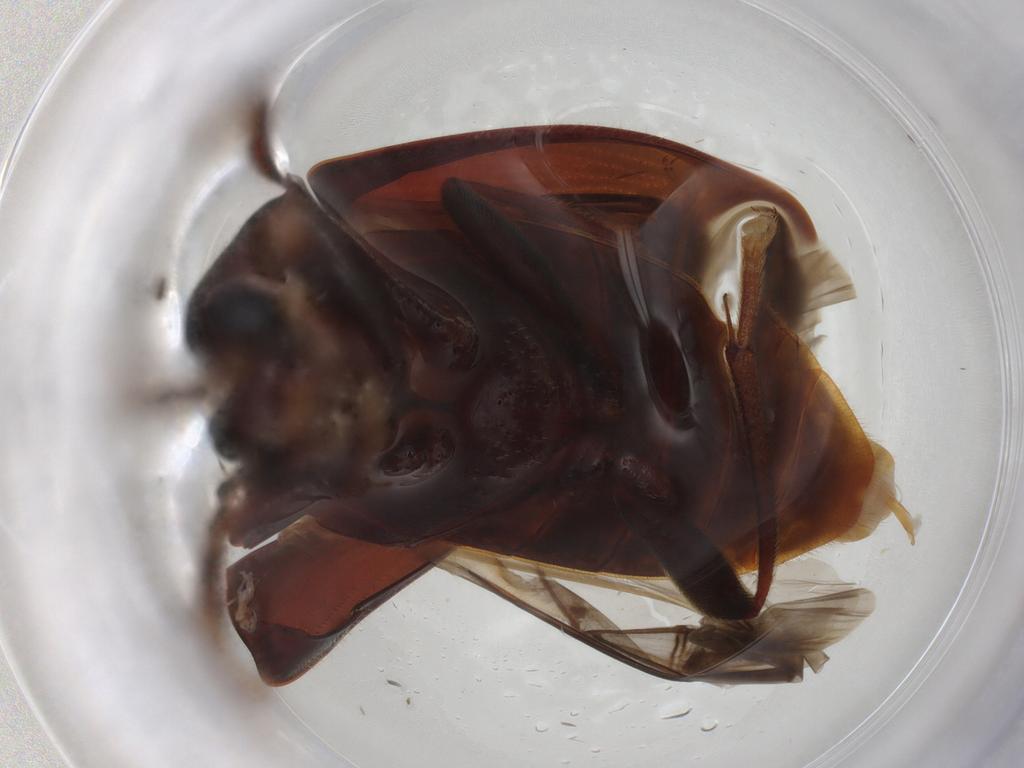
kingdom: Animalia
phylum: Arthropoda
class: Insecta
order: Coleoptera
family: Ptilodactylidae
